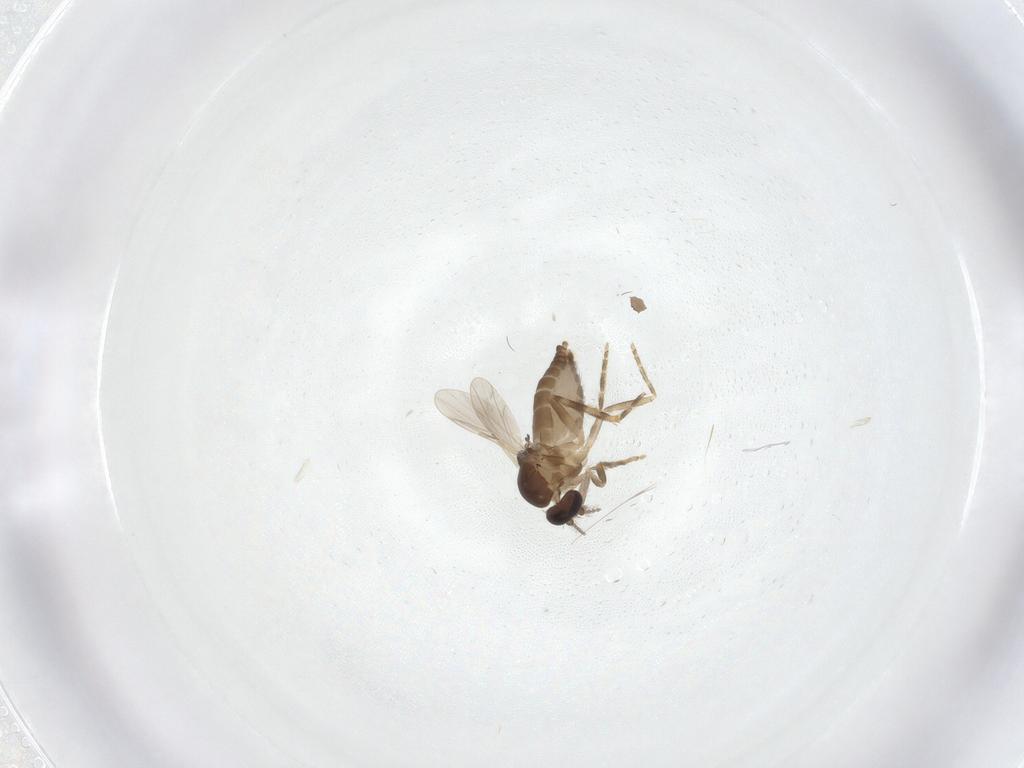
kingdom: Animalia
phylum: Arthropoda
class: Insecta
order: Diptera
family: Ceratopogonidae
